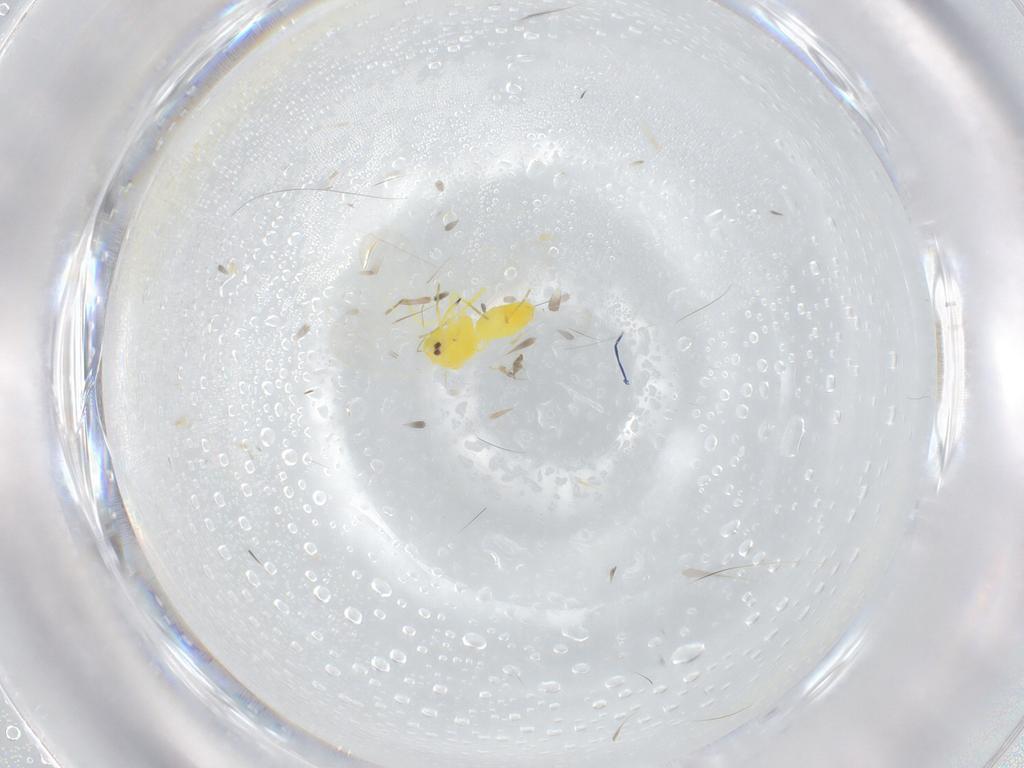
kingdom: Animalia
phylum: Arthropoda
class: Insecta
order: Hemiptera
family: Aleyrodidae
